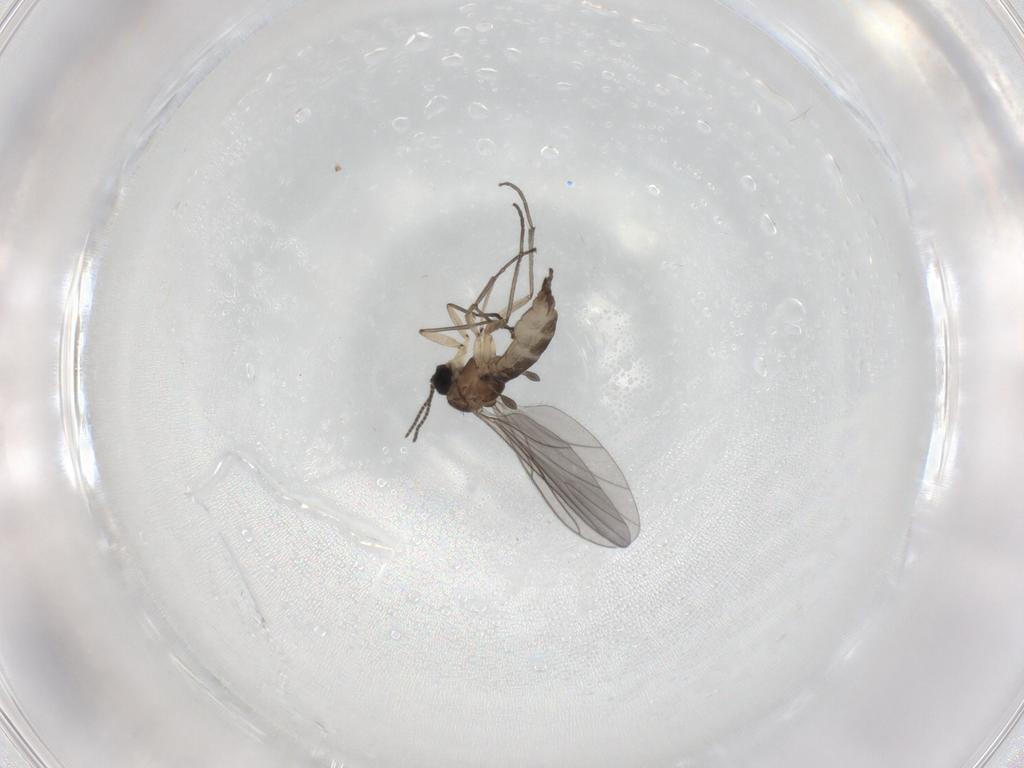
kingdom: Animalia
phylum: Arthropoda
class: Insecta
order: Diptera
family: Sciaridae
